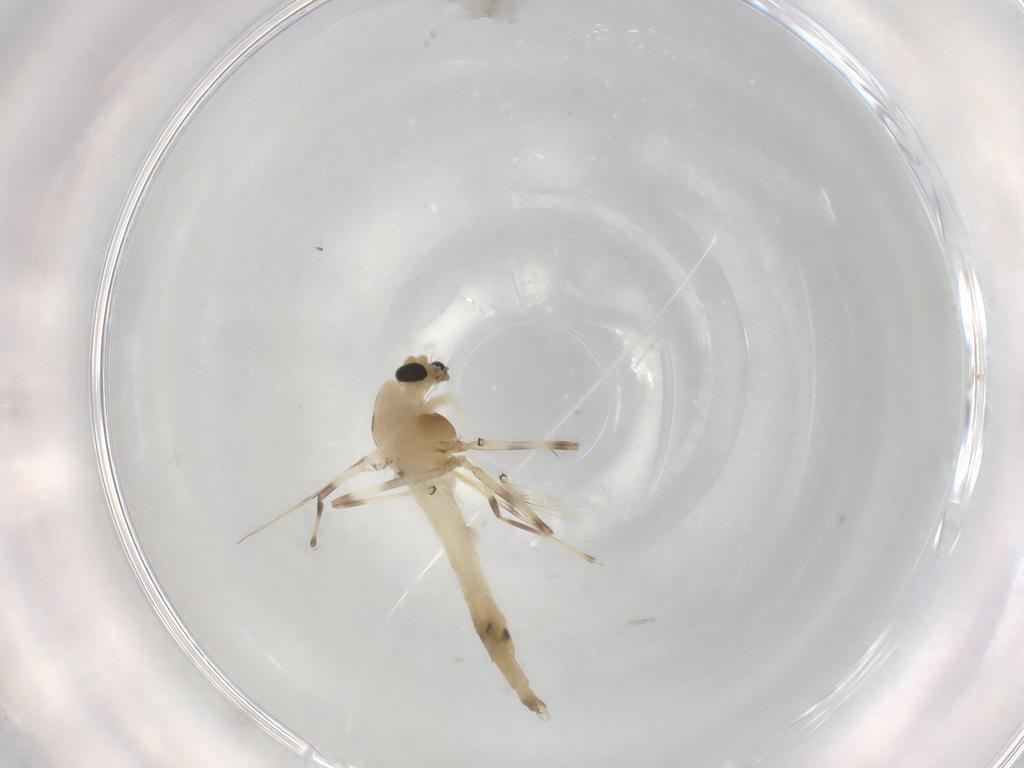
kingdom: Animalia
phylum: Arthropoda
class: Insecta
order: Diptera
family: Chironomidae
